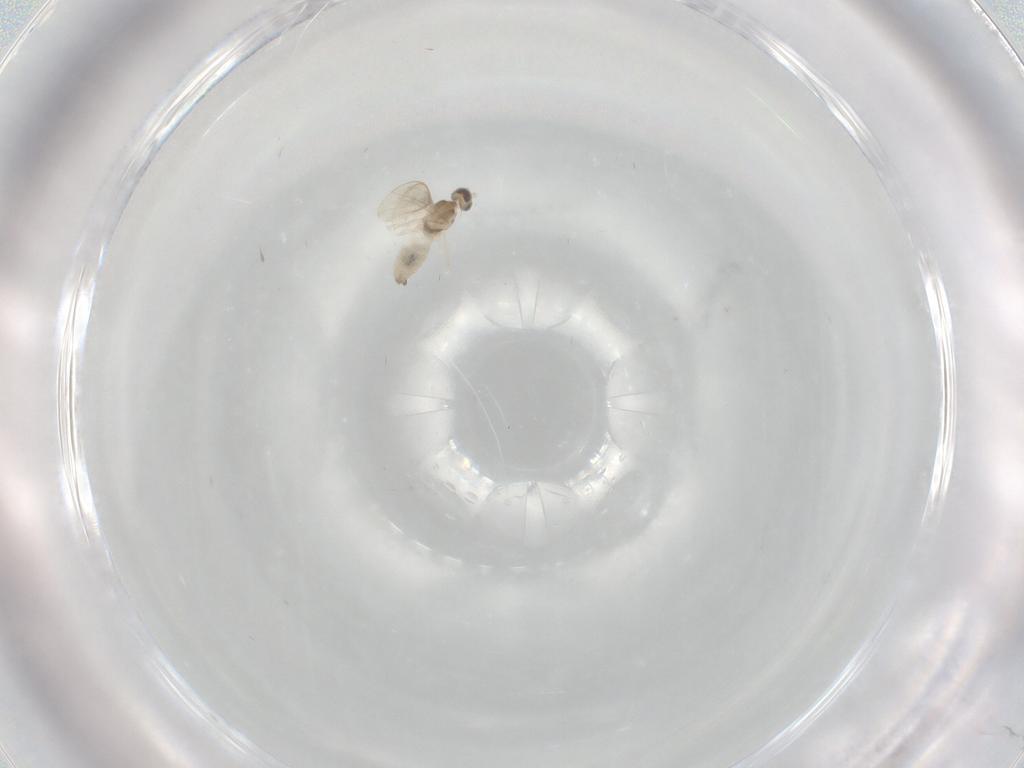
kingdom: Animalia
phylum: Arthropoda
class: Insecta
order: Diptera
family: Cecidomyiidae
